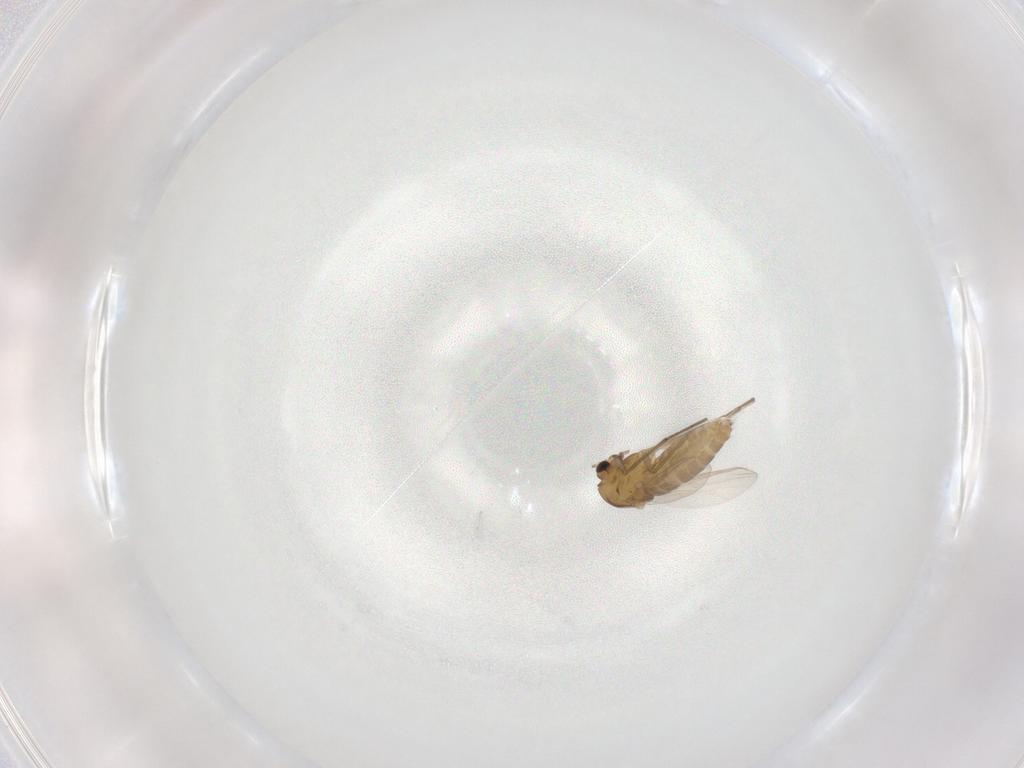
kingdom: Animalia
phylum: Arthropoda
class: Insecta
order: Diptera
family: Chironomidae
